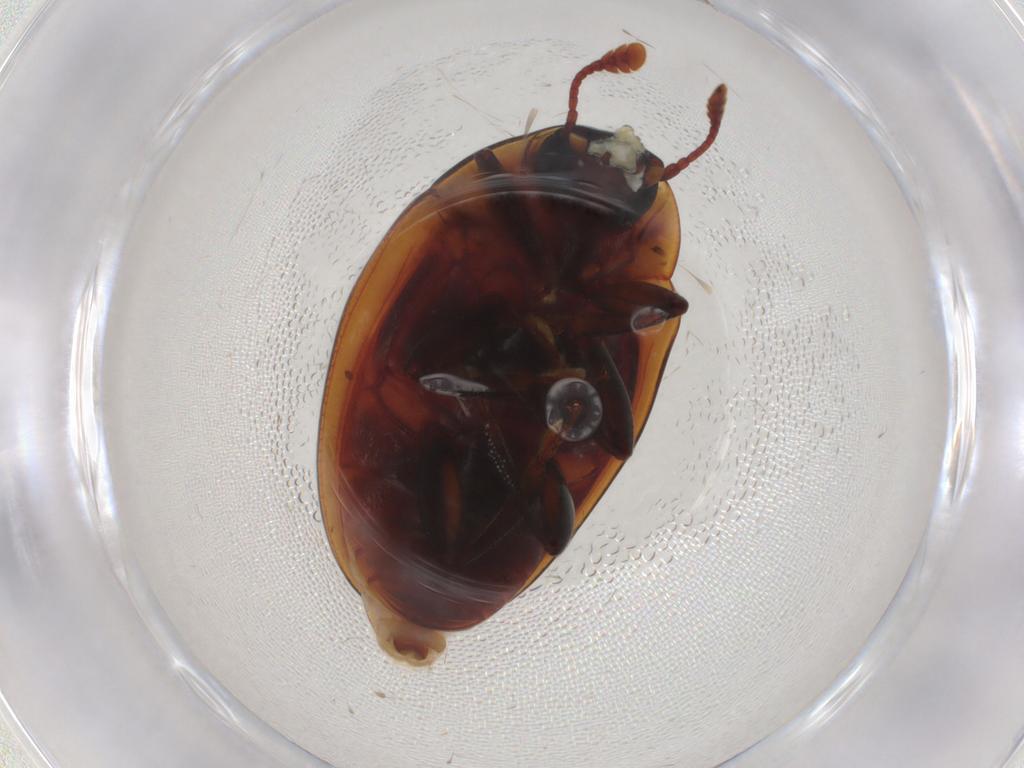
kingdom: Animalia
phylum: Arthropoda
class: Insecta
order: Coleoptera
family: Zopheridae
